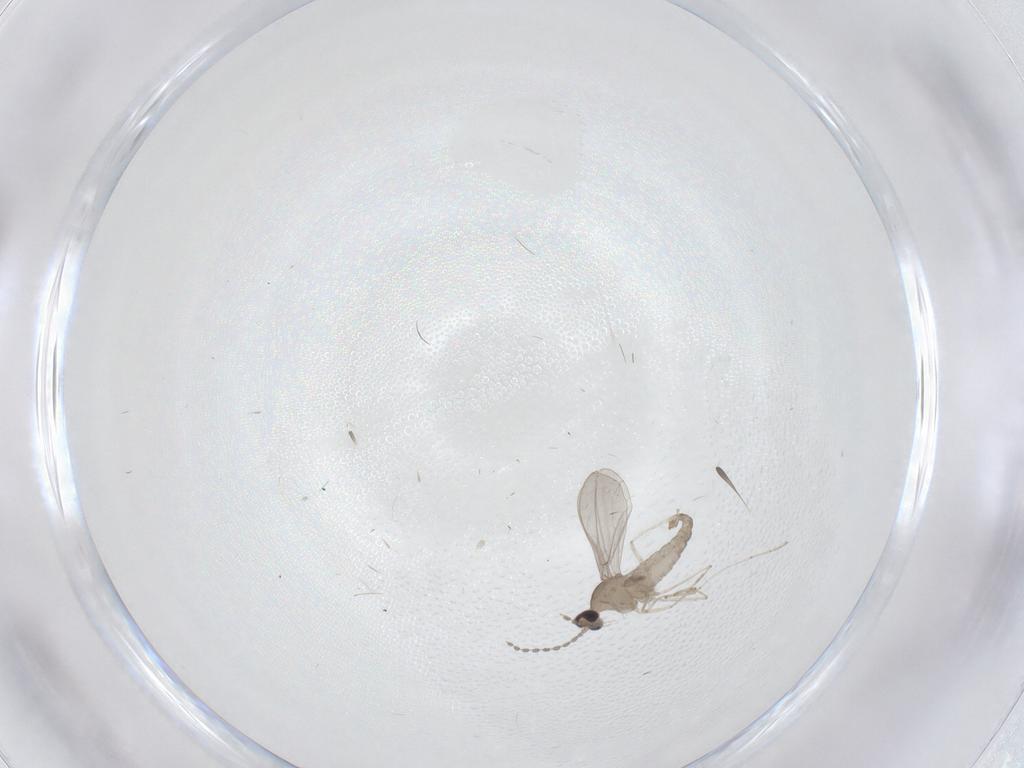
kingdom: Animalia
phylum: Arthropoda
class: Insecta
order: Diptera
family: Cecidomyiidae
